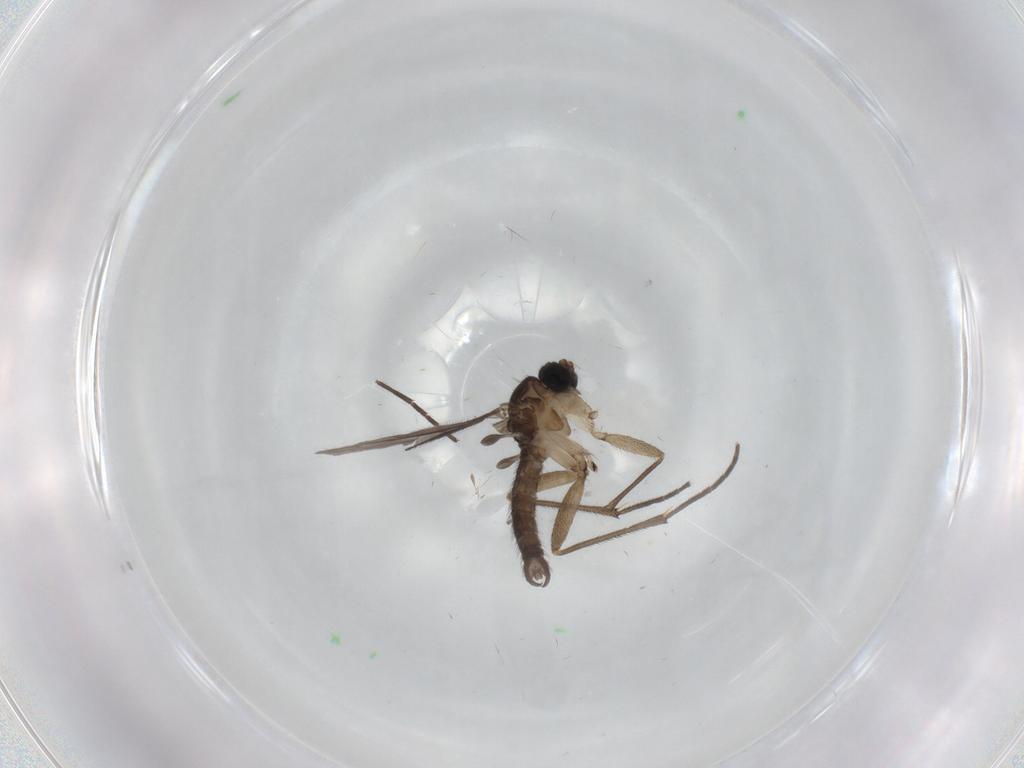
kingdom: Animalia
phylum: Arthropoda
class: Insecta
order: Diptera
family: Sciaridae
